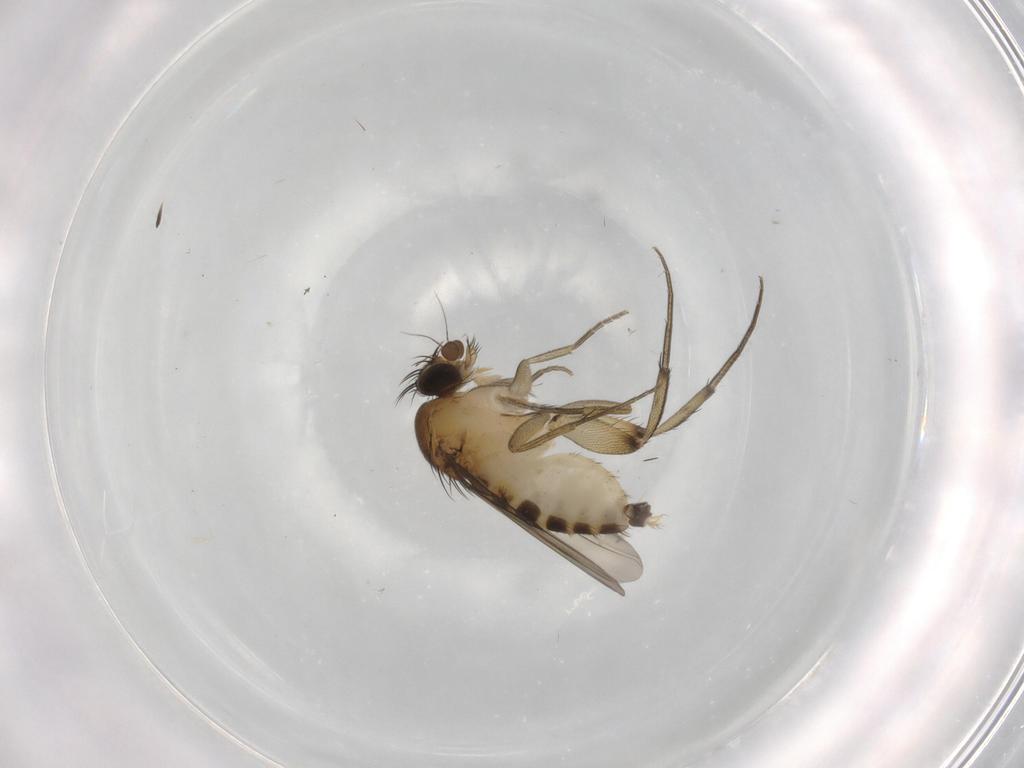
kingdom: Animalia
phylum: Arthropoda
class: Insecta
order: Diptera
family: Phoridae
